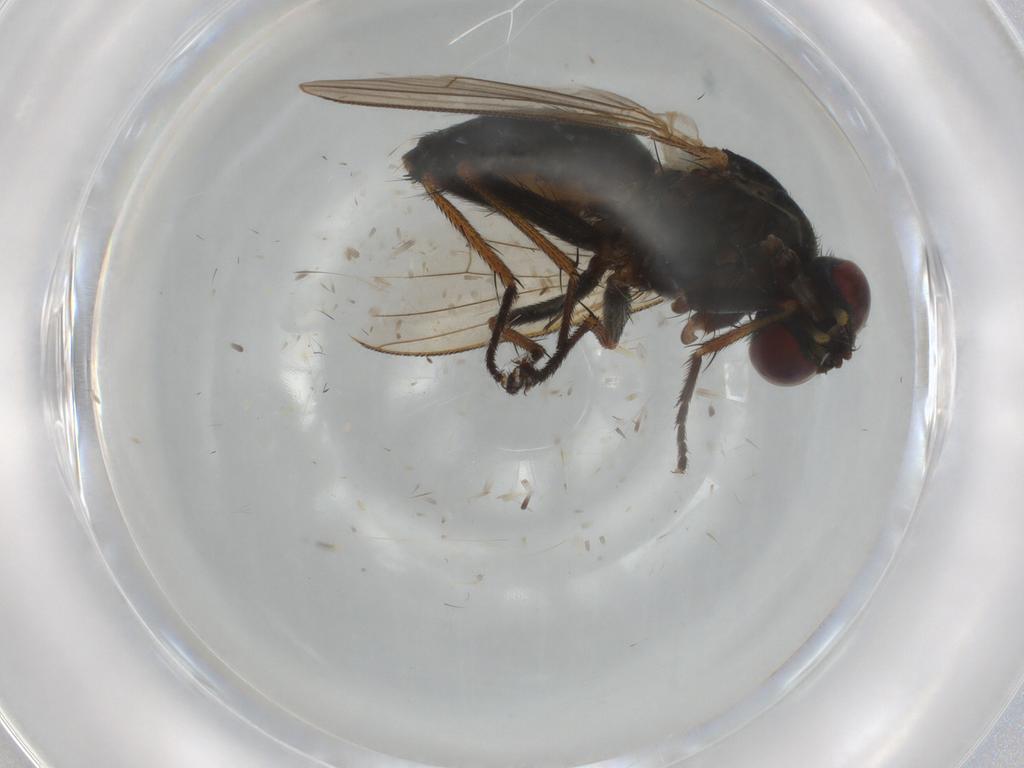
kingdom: Animalia
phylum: Arthropoda
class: Insecta
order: Diptera
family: Muscidae
